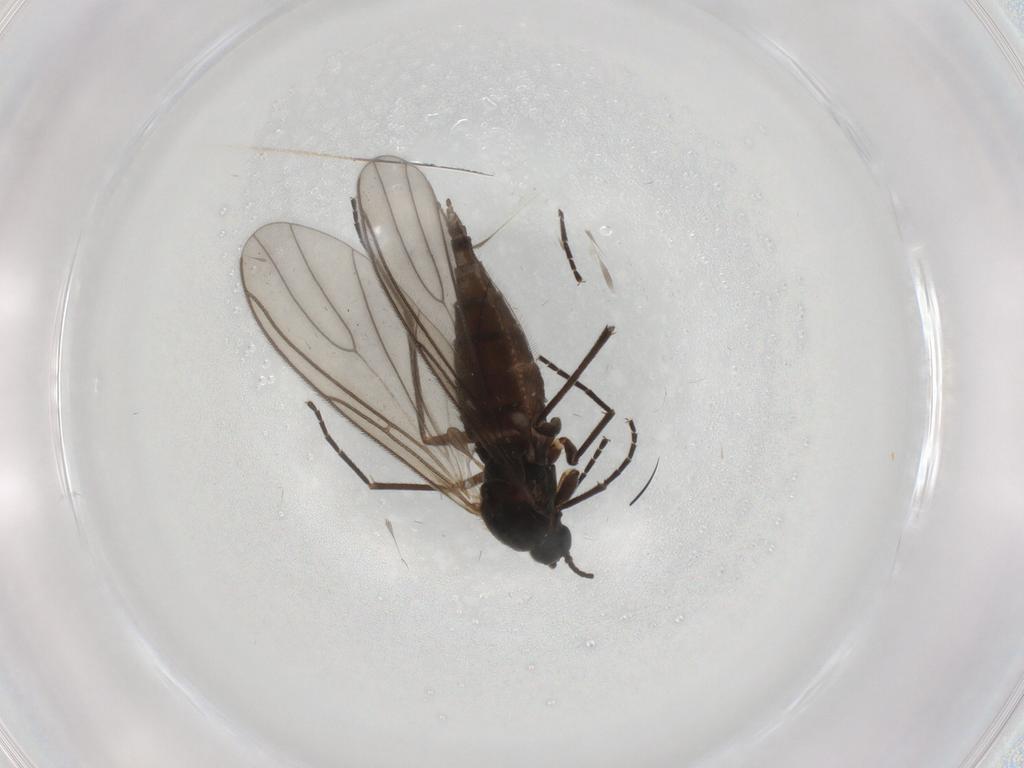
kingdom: Animalia
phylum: Arthropoda
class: Insecta
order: Diptera
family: Sciaridae
